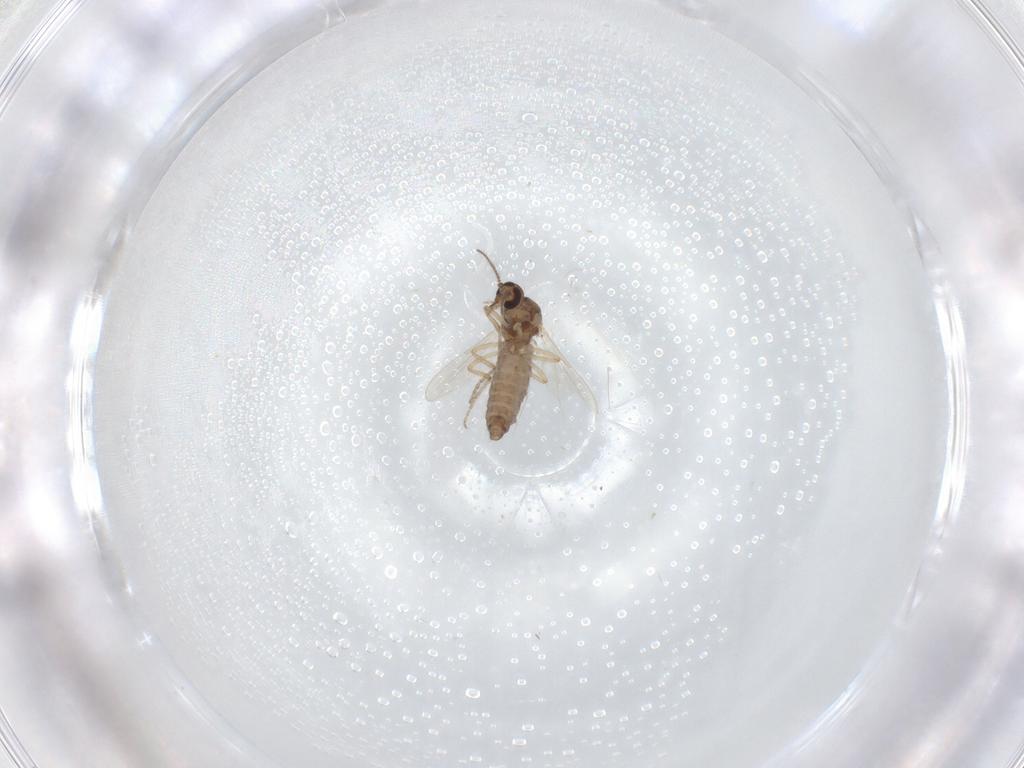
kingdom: Animalia
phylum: Arthropoda
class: Insecta
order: Diptera
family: Ceratopogonidae
